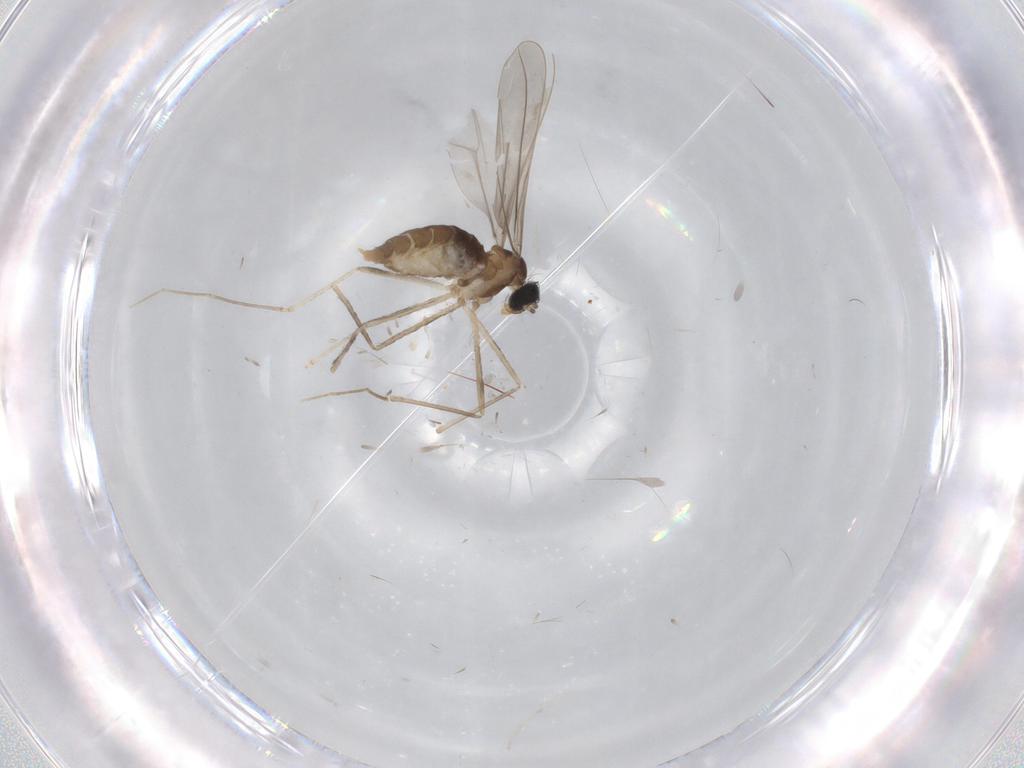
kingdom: Animalia
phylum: Arthropoda
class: Insecta
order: Diptera
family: Cecidomyiidae
